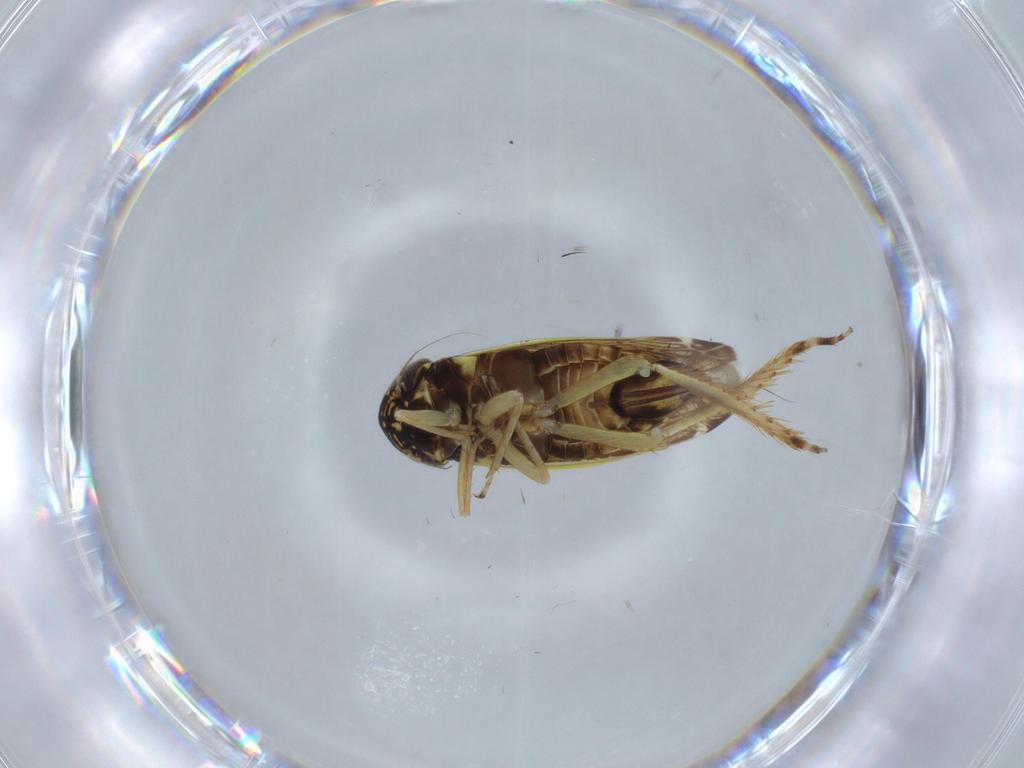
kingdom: Animalia
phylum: Arthropoda
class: Insecta
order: Hemiptera
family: Cicadellidae
